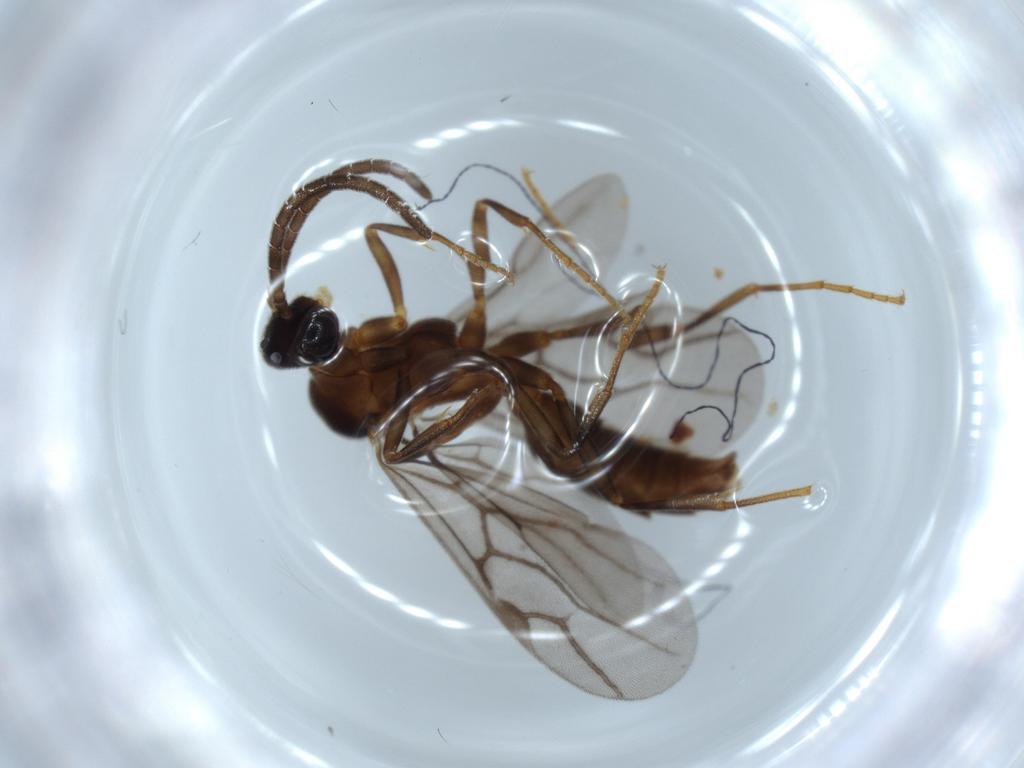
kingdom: Animalia
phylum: Arthropoda
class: Insecta
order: Hymenoptera
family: Formicidae
